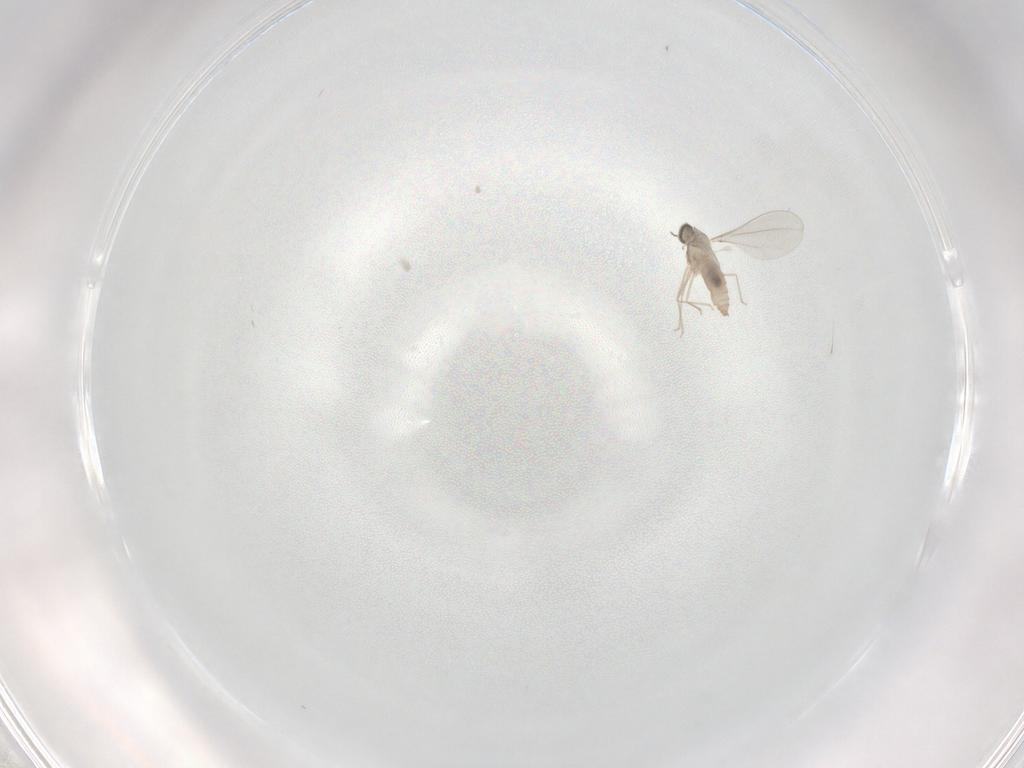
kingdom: Animalia
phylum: Arthropoda
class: Insecta
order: Diptera
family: Cecidomyiidae
